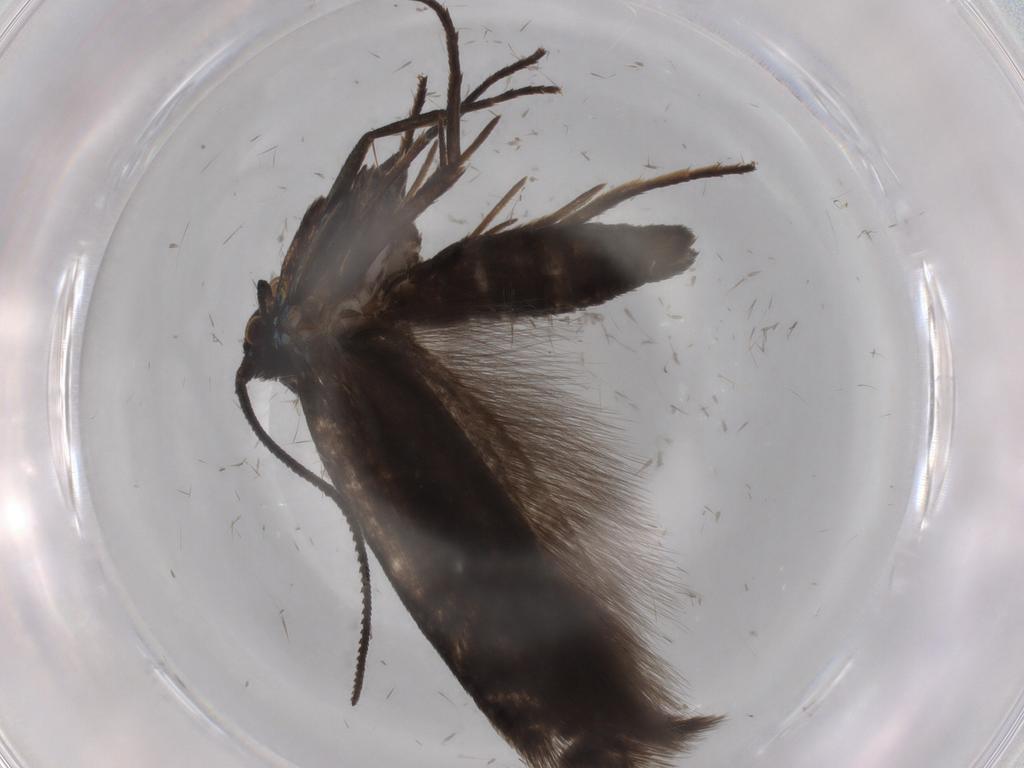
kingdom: Animalia
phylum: Arthropoda
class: Insecta
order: Lepidoptera
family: Argyresthiidae
